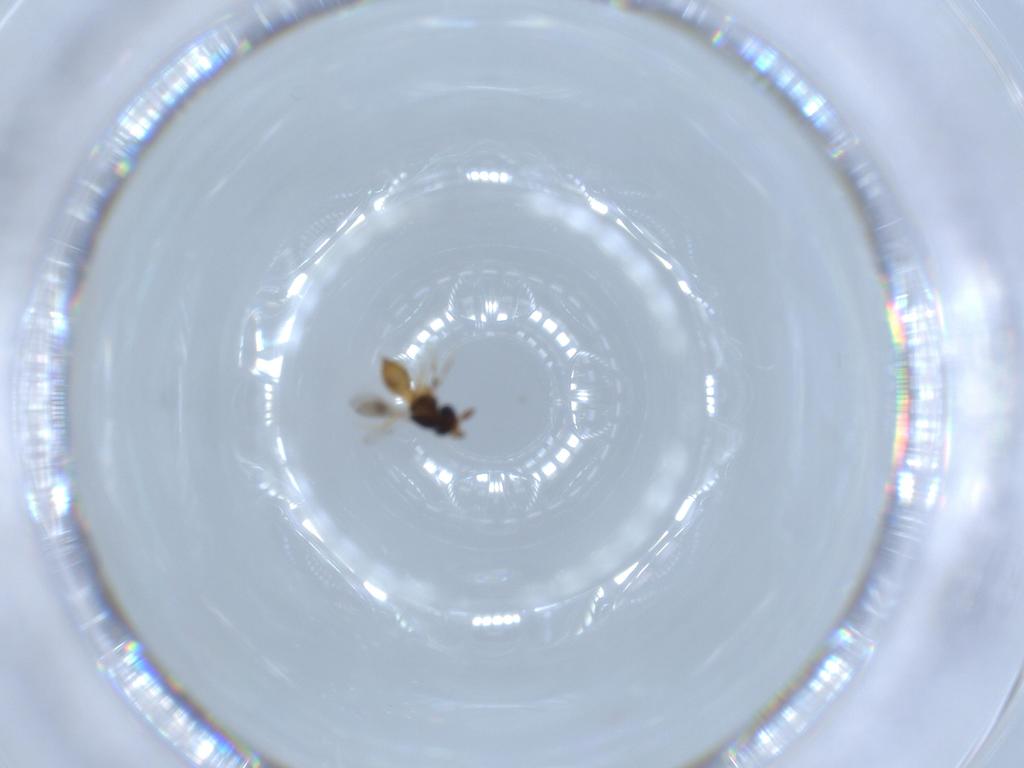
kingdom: Animalia
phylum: Arthropoda
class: Insecta
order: Hymenoptera
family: Scelionidae
